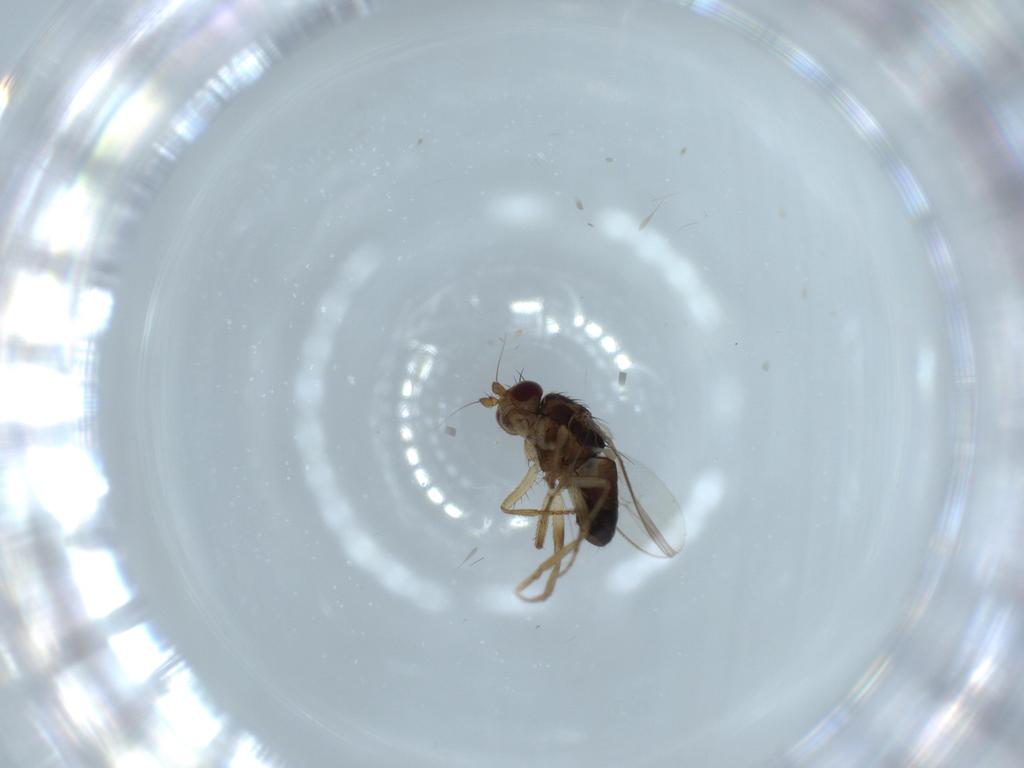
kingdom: Animalia
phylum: Arthropoda
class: Insecta
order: Diptera
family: Sphaeroceridae
